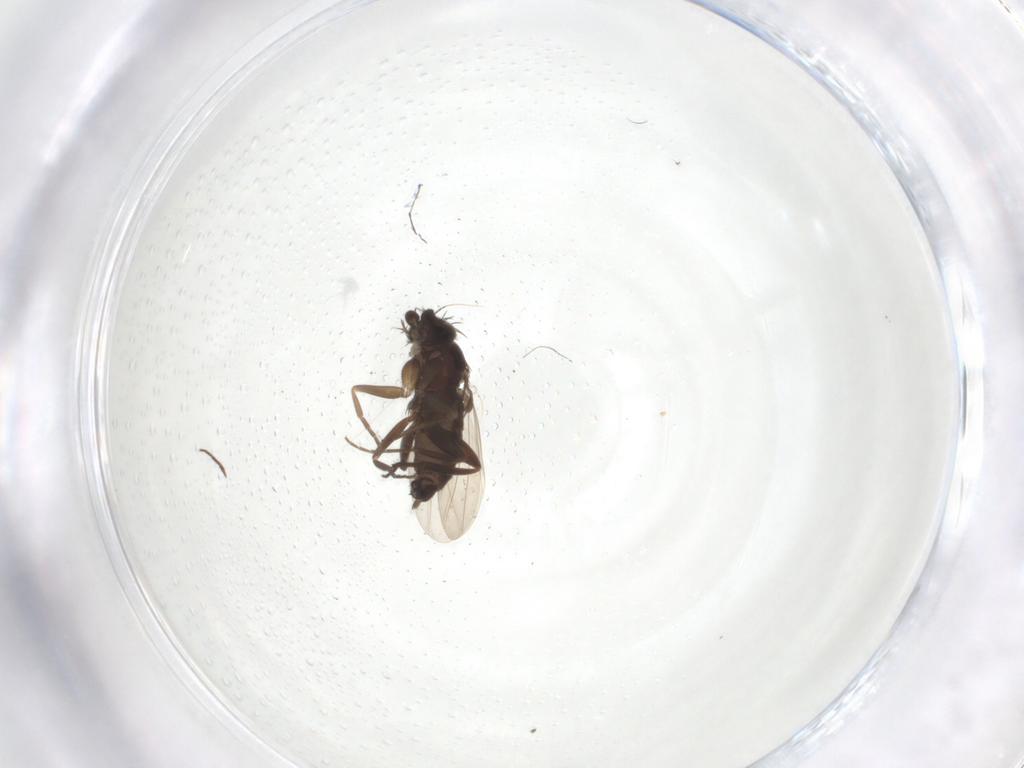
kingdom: Animalia
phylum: Arthropoda
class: Insecta
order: Diptera
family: Phoridae
